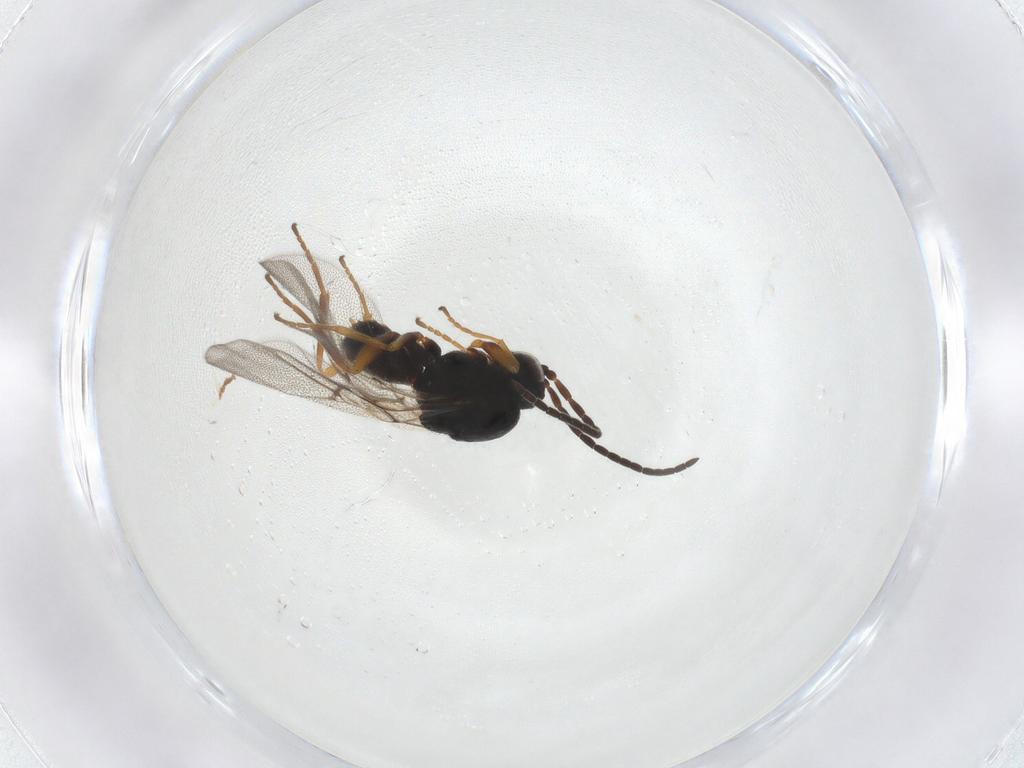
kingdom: Animalia
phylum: Arthropoda
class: Insecta
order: Hymenoptera
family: Cynipidae
